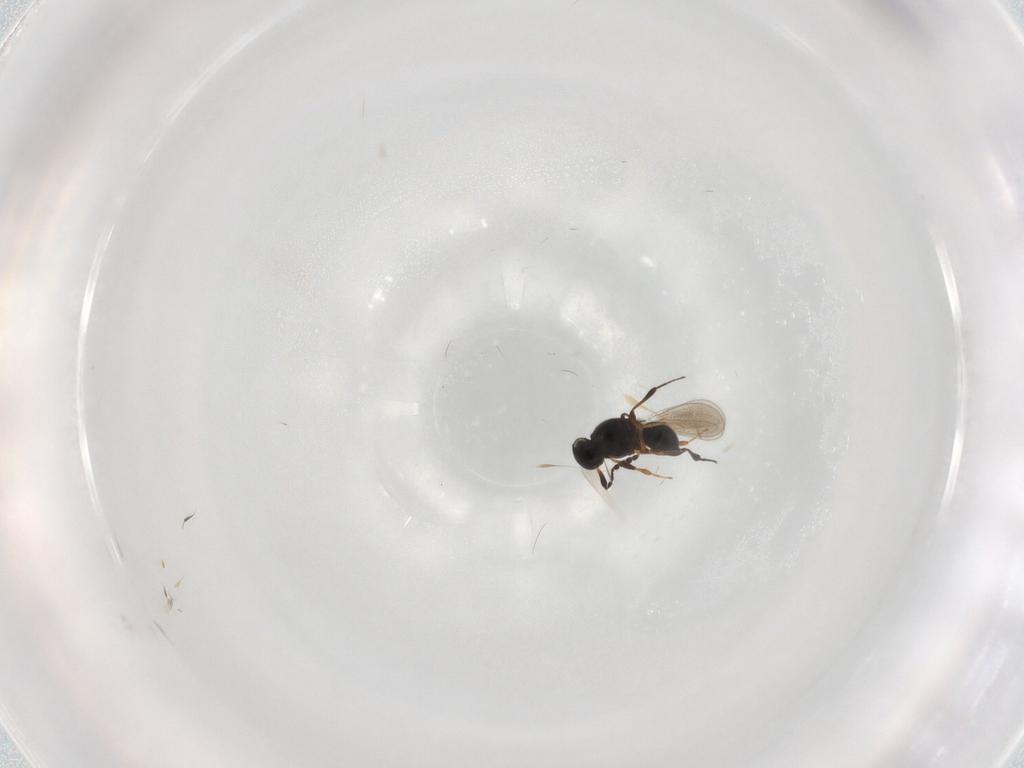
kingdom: Animalia
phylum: Arthropoda
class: Insecta
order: Hymenoptera
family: Platygastridae
